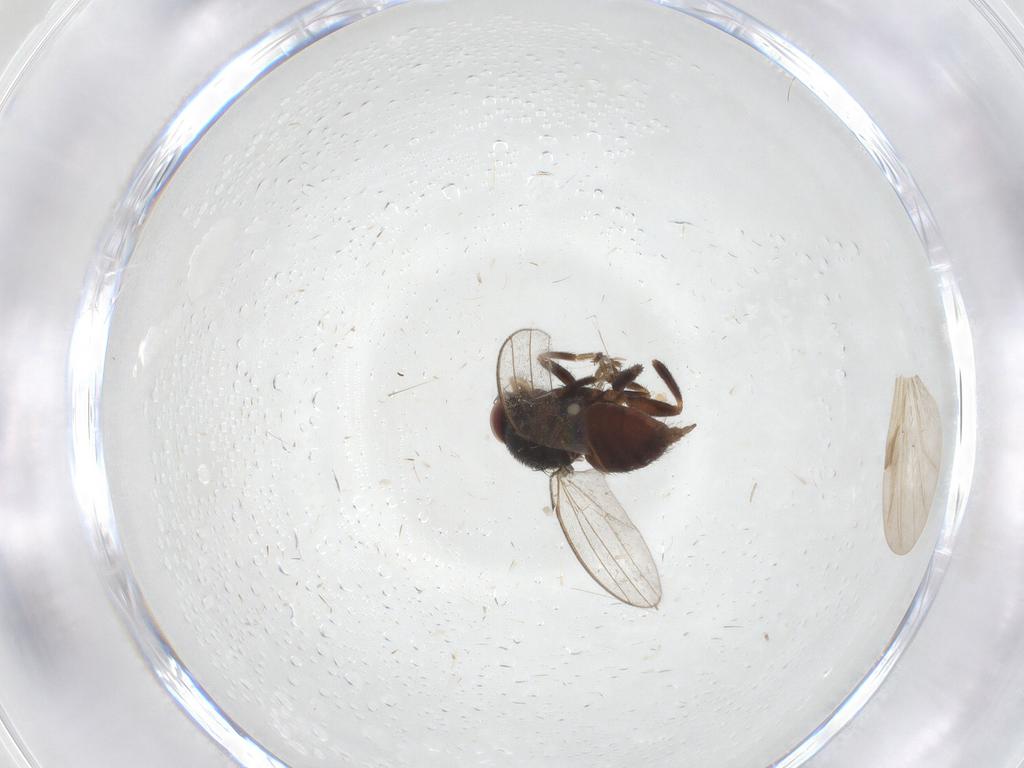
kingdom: Animalia
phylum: Arthropoda
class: Insecta
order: Diptera
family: Milichiidae
